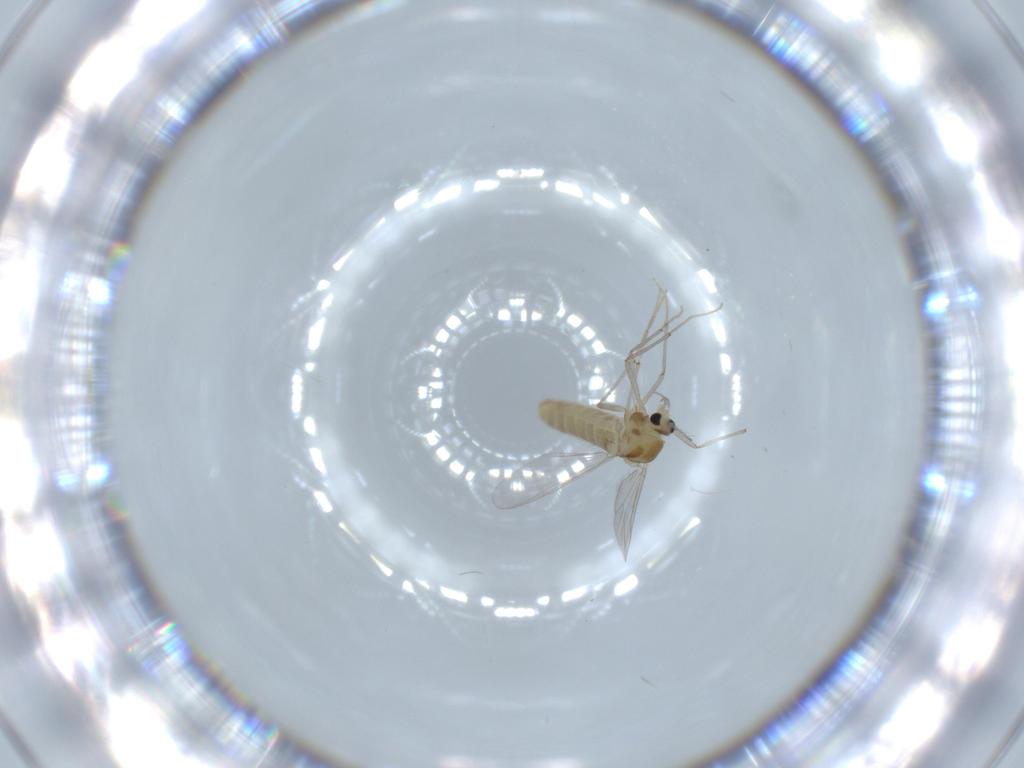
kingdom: Animalia
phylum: Arthropoda
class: Insecta
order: Diptera
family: Chironomidae
